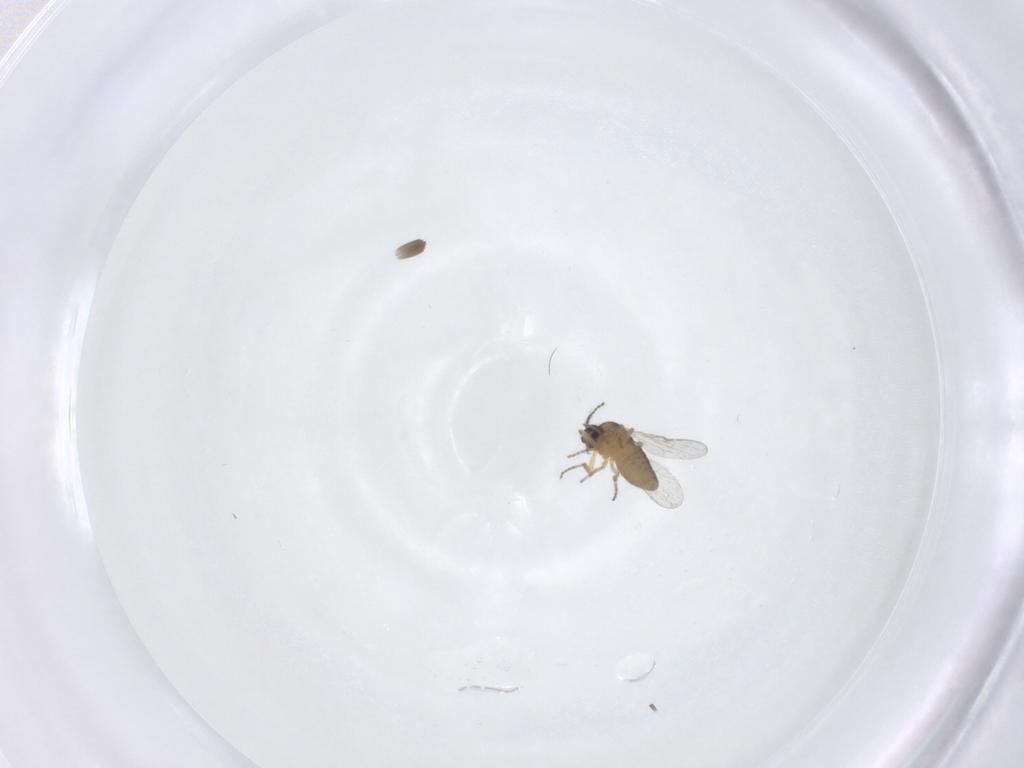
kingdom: Animalia
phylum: Arthropoda
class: Insecta
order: Diptera
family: Ceratopogonidae
